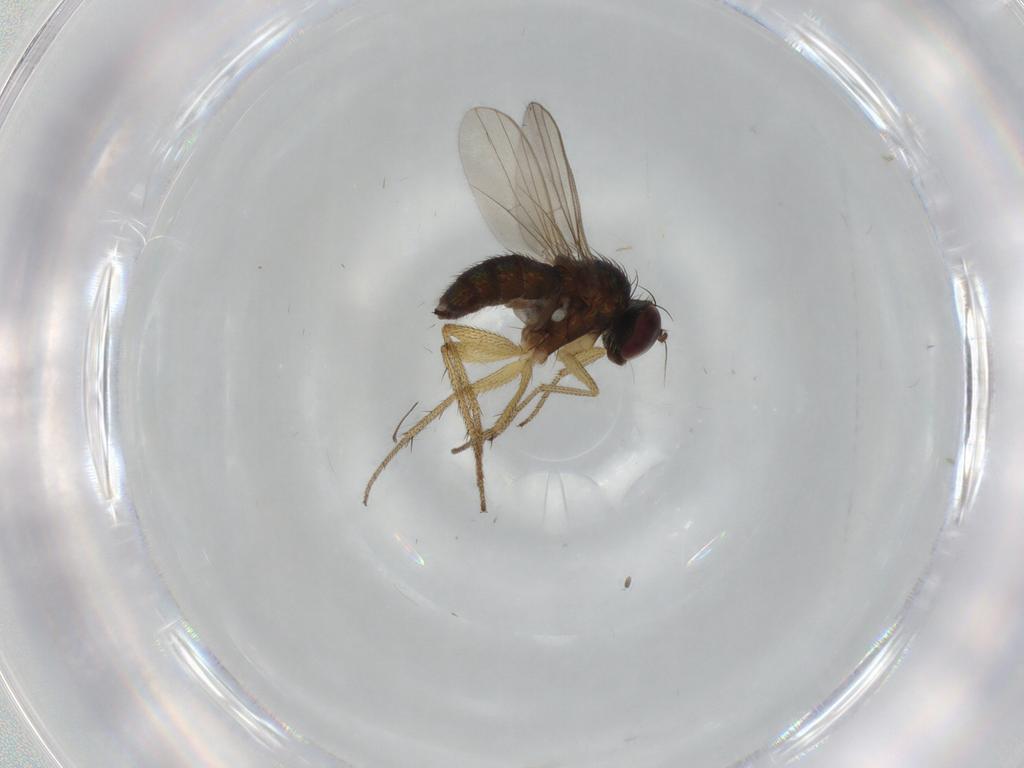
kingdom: Animalia
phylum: Arthropoda
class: Insecta
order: Diptera
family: Dolichopodidae
